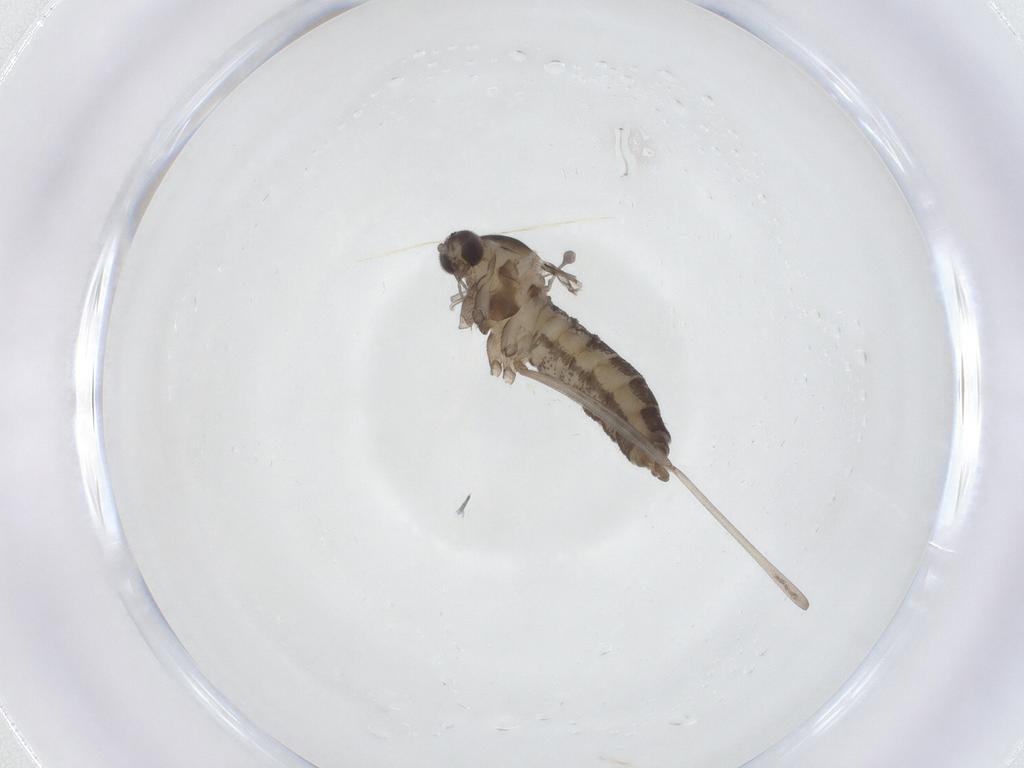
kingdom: Animalia
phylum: Arthropoda
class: Insecta
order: Diptera
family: Cecidomyiidae
